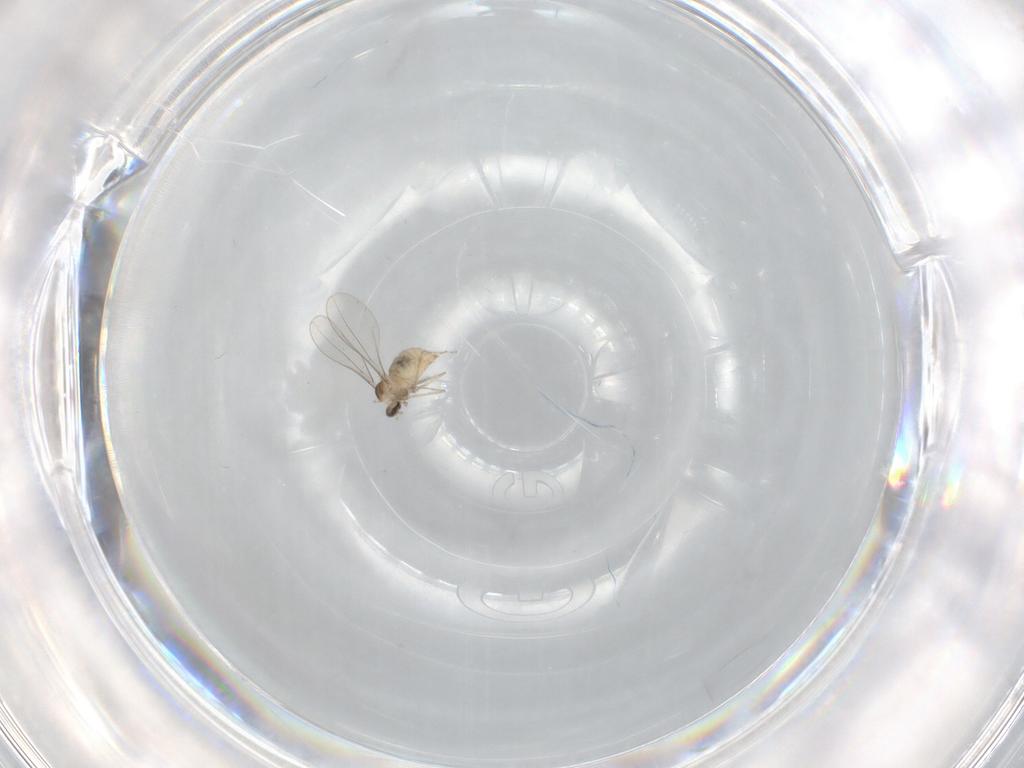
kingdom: Animalia
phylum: Arthropoda
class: Insecta
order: Diptera
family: Cecidomyiidae
